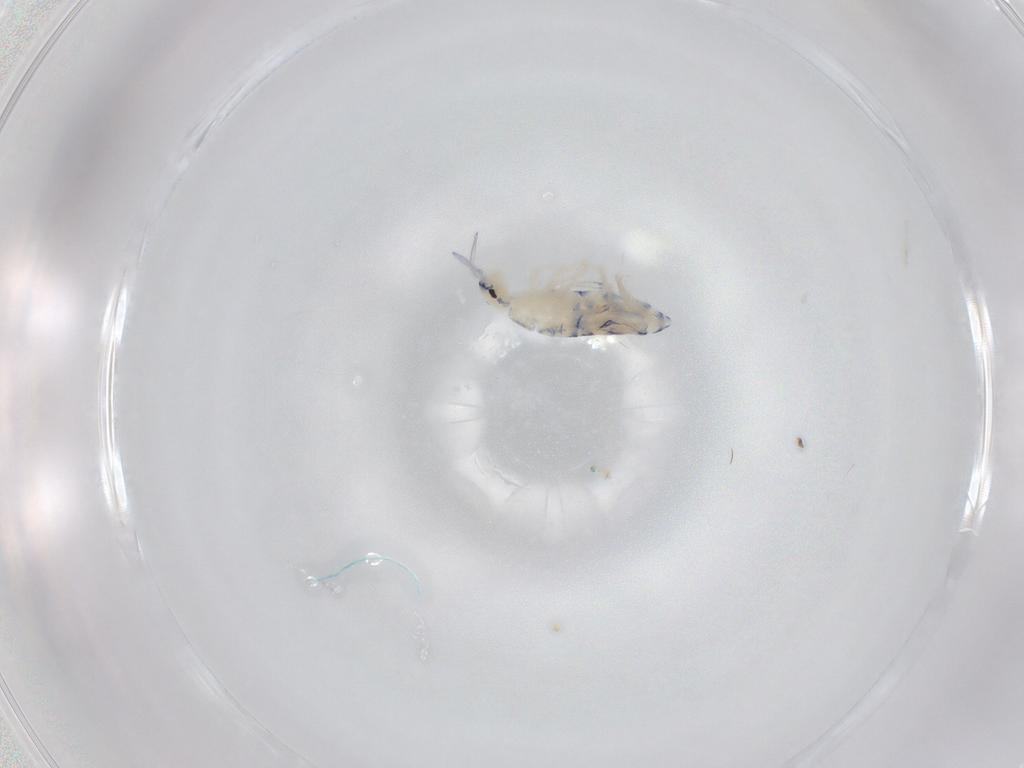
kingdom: Animalia
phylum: Arthropoda
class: Collembola
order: Entomobryomorpha
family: Entomobryidae
